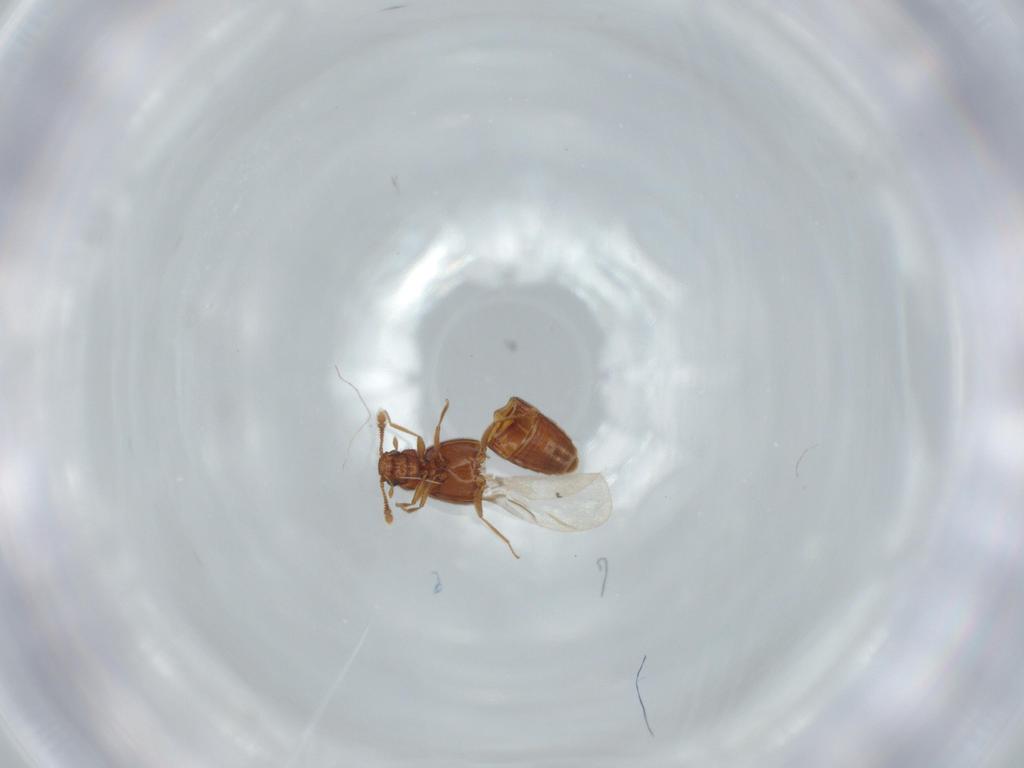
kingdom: Animalia
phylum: Arthropoda
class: Insecta
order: Coleoptera
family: Staphylinidae
